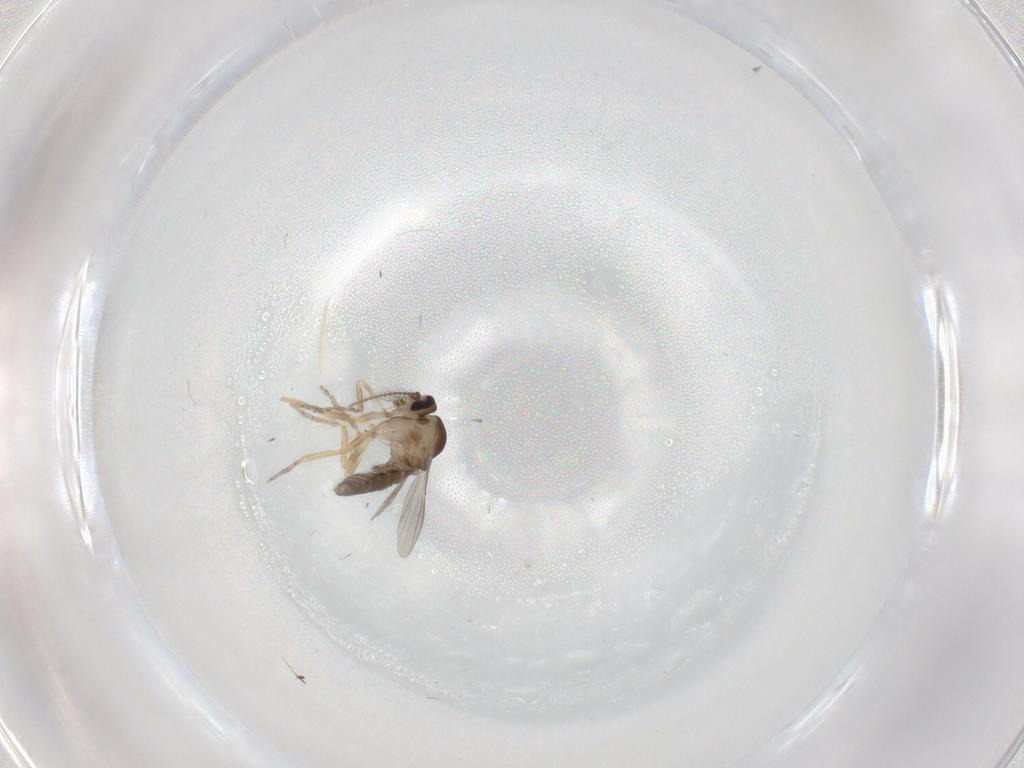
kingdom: Animalia
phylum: Arthropoda
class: Insecta
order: Diptera
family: Ceratopogonidae
